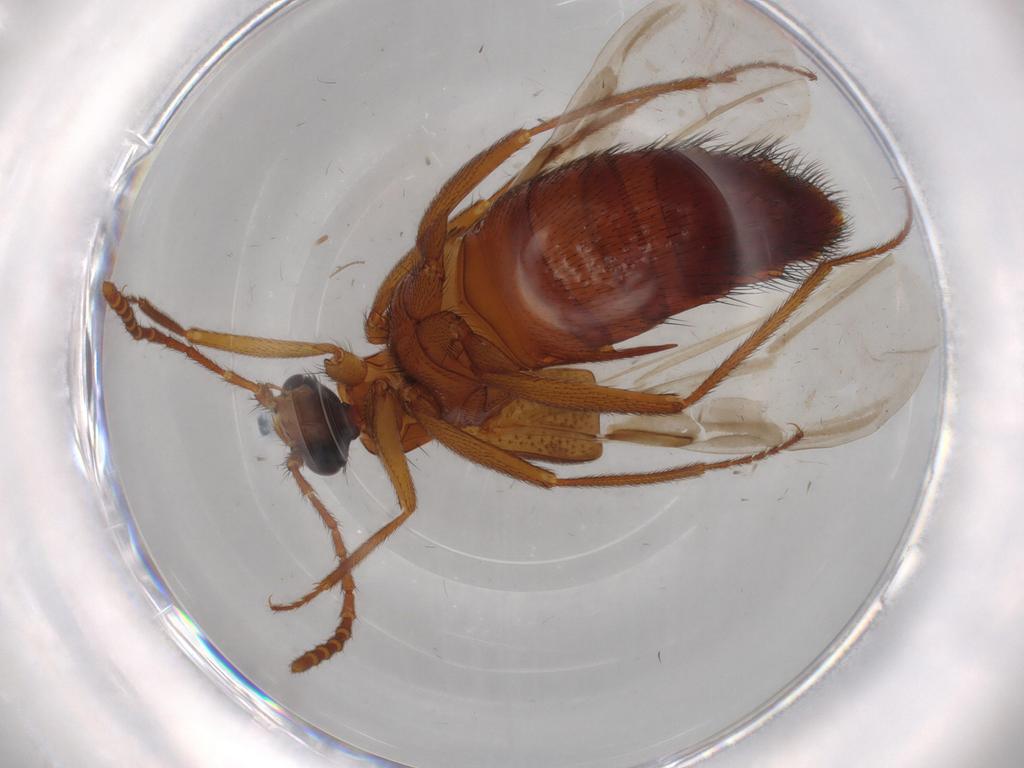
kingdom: Animalia
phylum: Arthropoda
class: Insecta
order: Coleoptera
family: Staphylinidae
